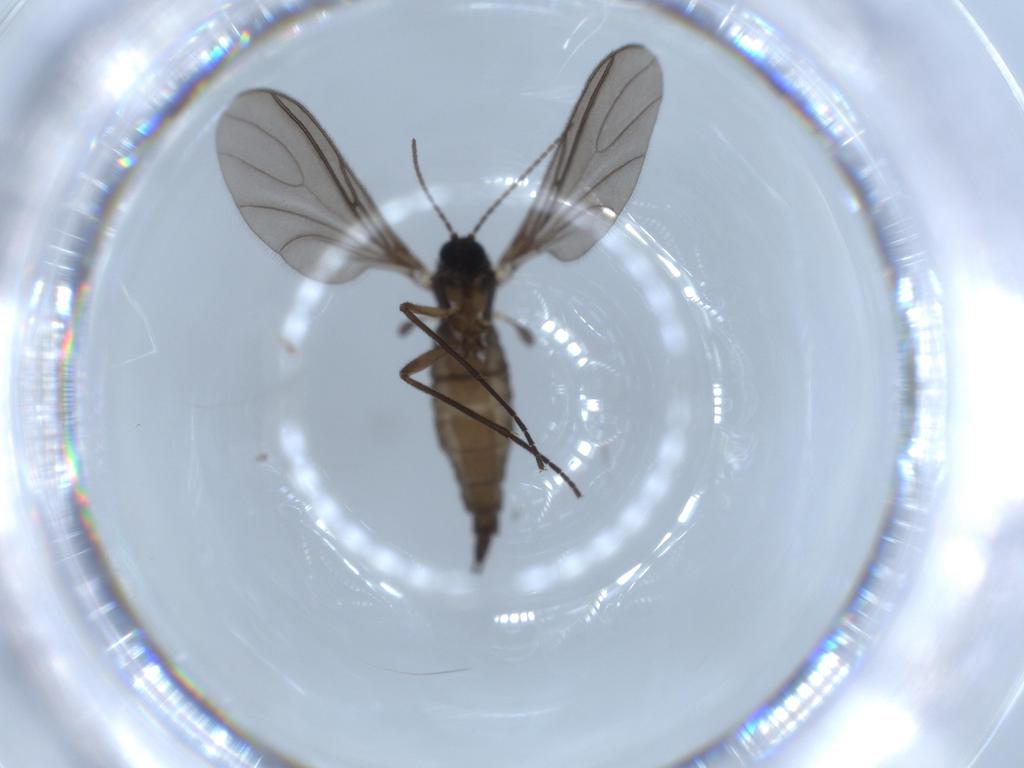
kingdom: Animalia
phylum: Arthropoda
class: Insecta
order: Diptera
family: Sciaridae
